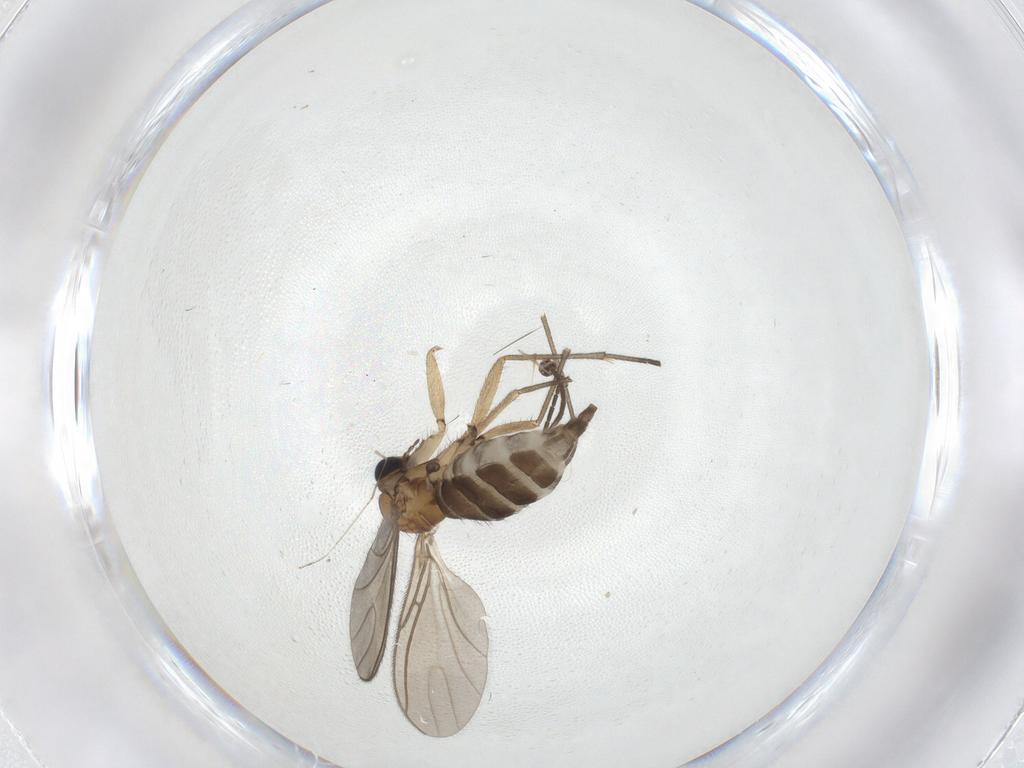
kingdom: Animalia
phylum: Arthropoda
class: Insecta
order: Diptera
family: Sciaridae
